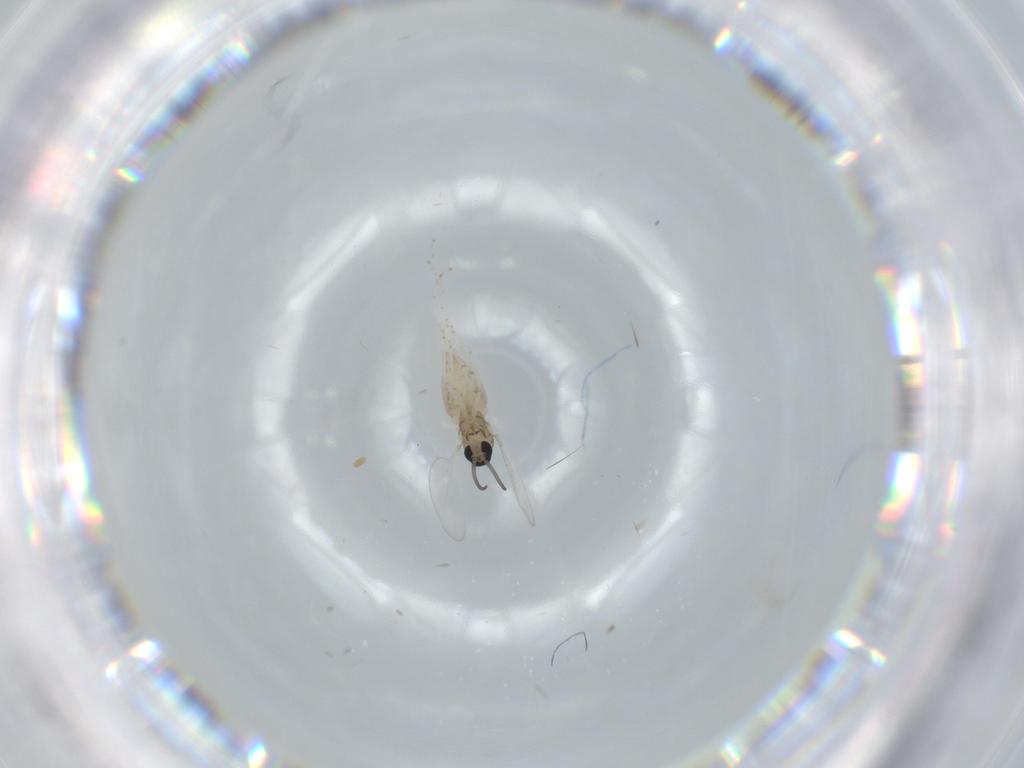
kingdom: Animalia
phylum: Arthropoda
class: Insecta
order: Diptera
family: Cecidomyiidae
